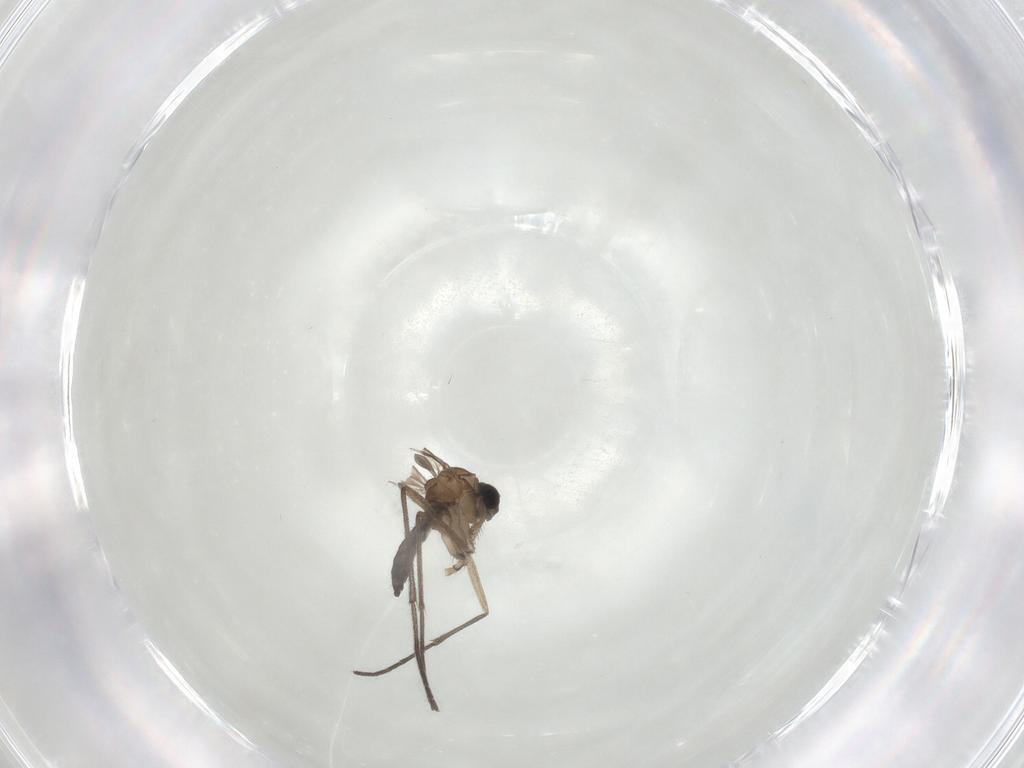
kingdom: Animalia
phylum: Arthropoda
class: Insecta
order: Diptera
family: Sciaridae
